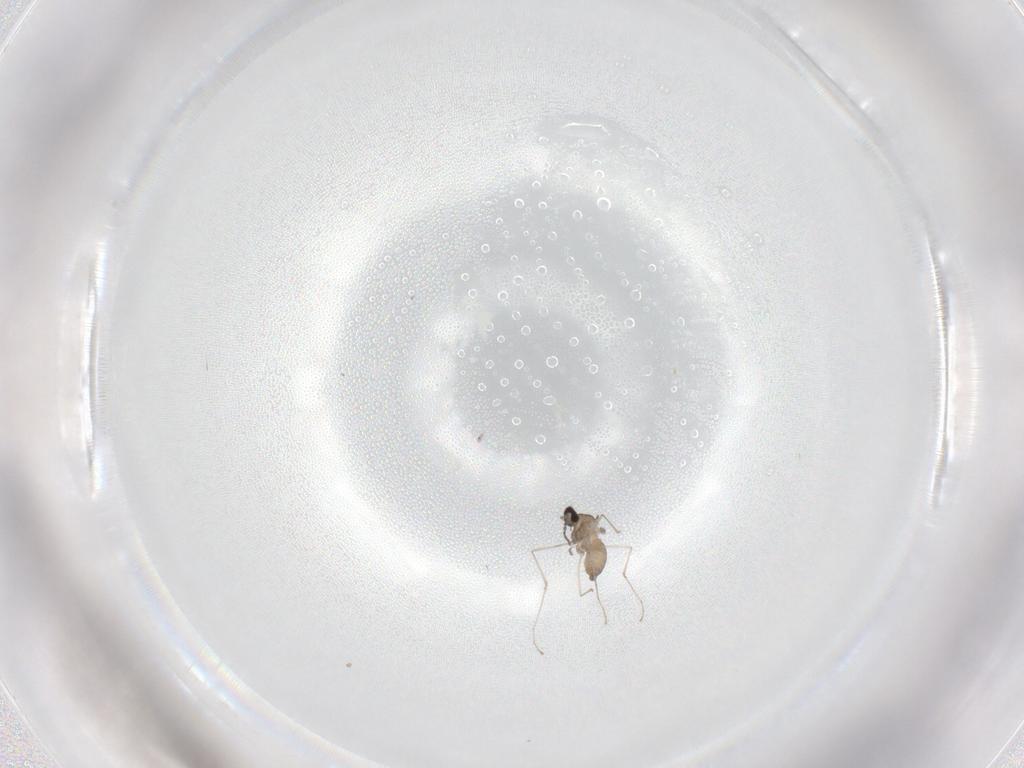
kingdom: Animalia
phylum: Arthropoda
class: Insecta
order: Diptera
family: Cecidomyiidae
